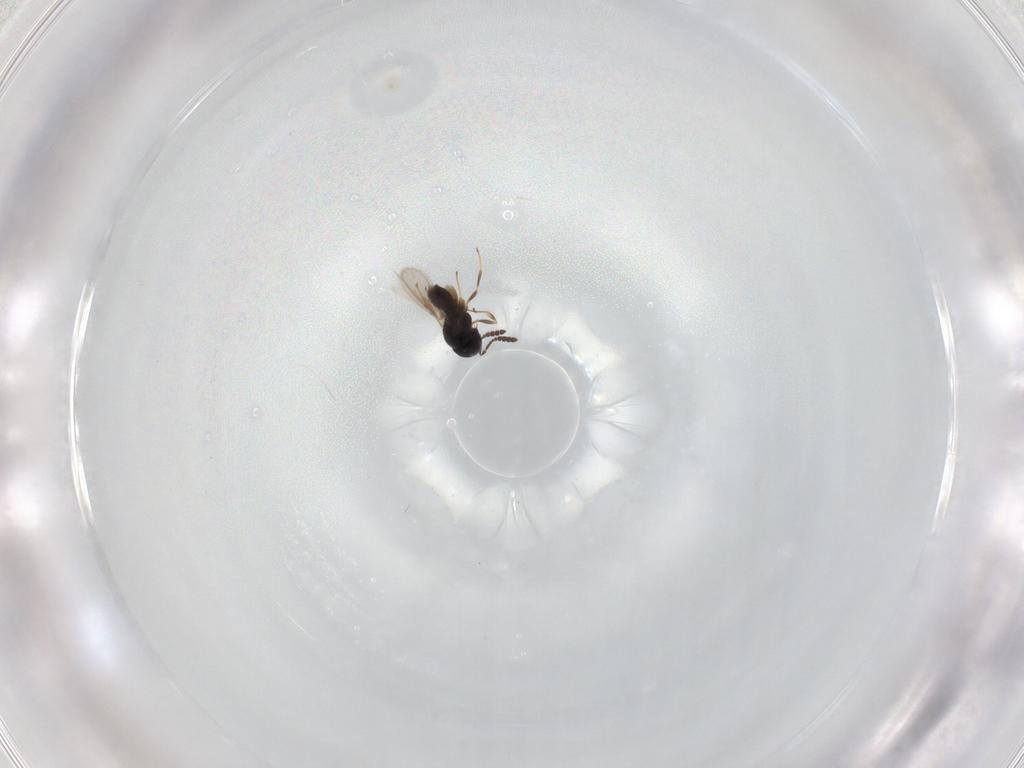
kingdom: Animalia
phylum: Arthropoda
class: Insecta
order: Hymenoptera
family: Scelionidae
